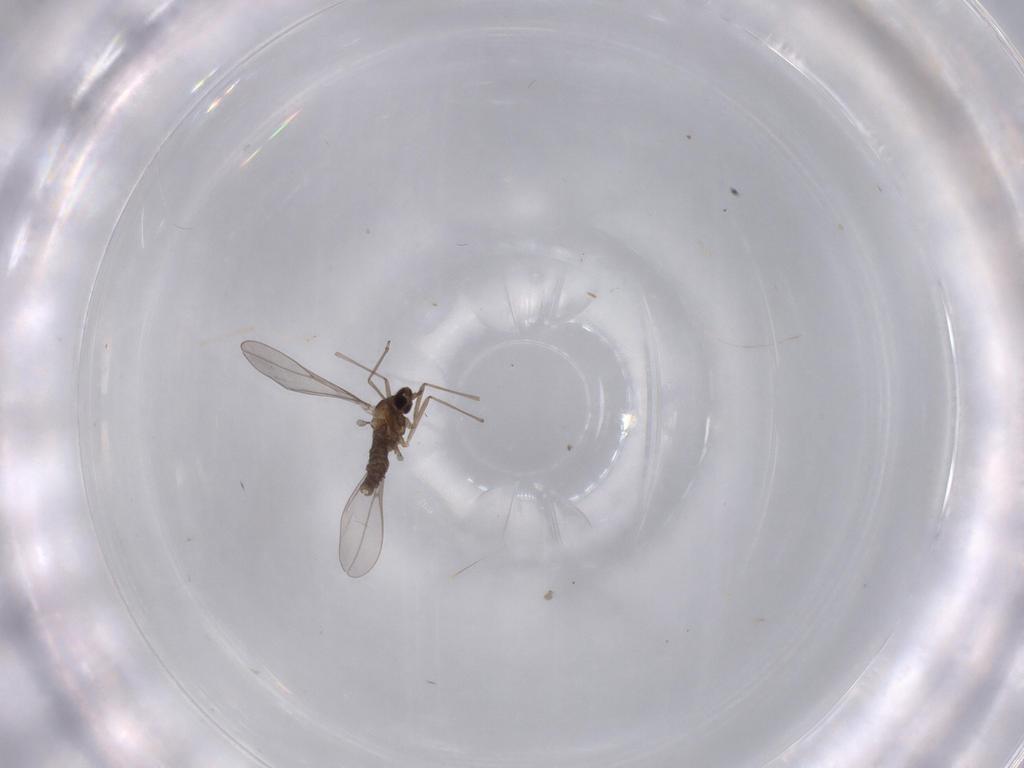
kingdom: Animalia
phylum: Arthropoda
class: Insecta
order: Diptera
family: Cecidomyiidae
